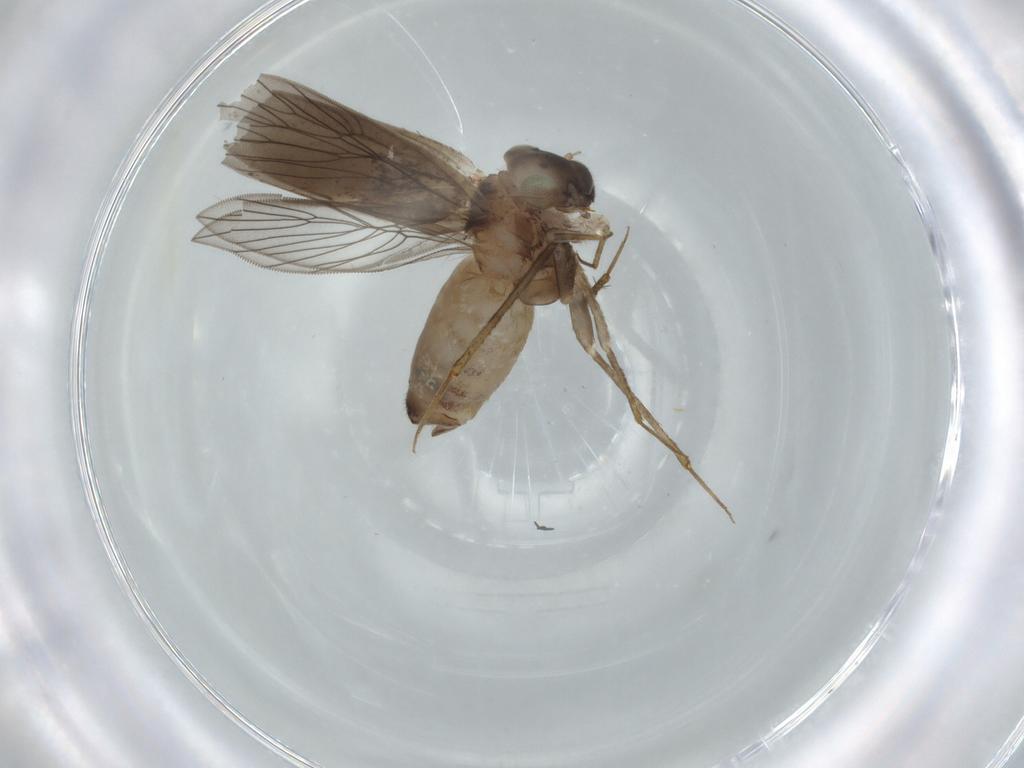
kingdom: Animalia
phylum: Arthropoda
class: Insecta
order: Psocodea
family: Lepidopsocidae
